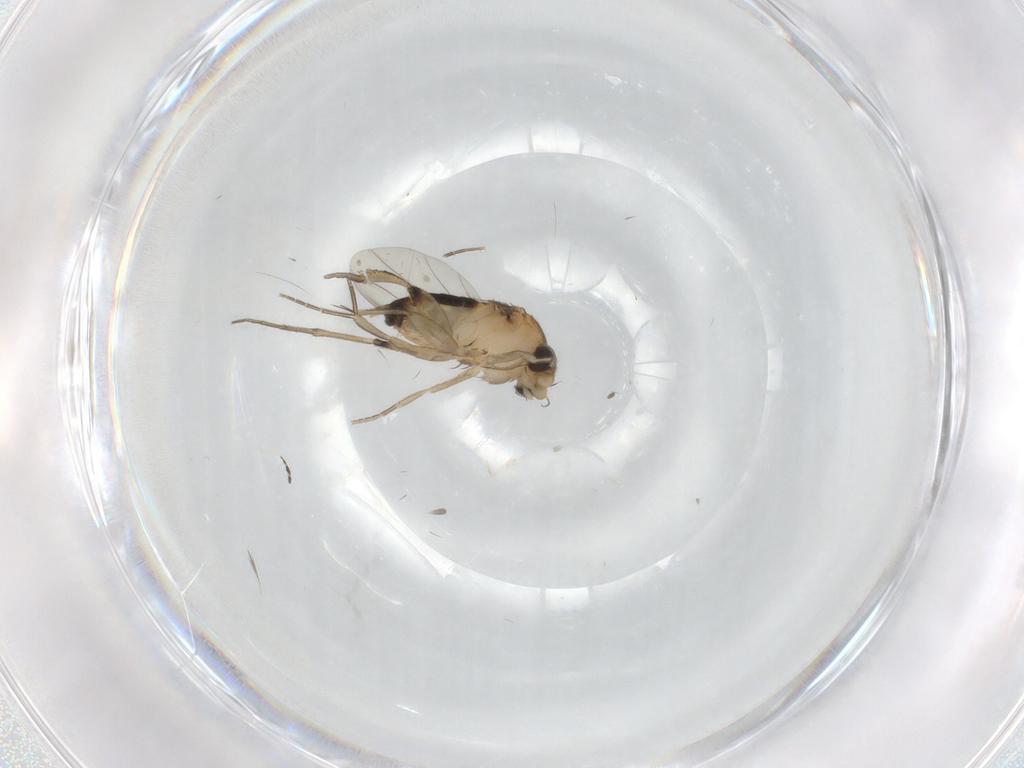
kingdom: Animalia
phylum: Arthropoda
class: Insecta
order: Diptera
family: Phoridae
